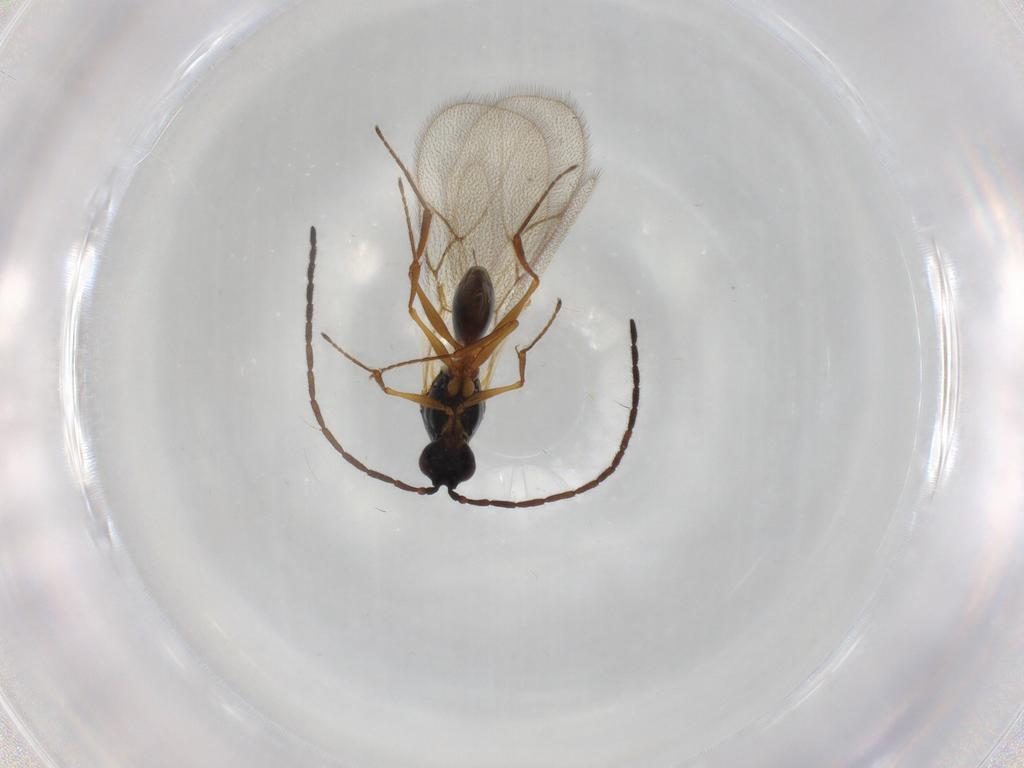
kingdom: Animalia
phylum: Arthropoda
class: Insecta
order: Hymenoptera
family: Figitidae
